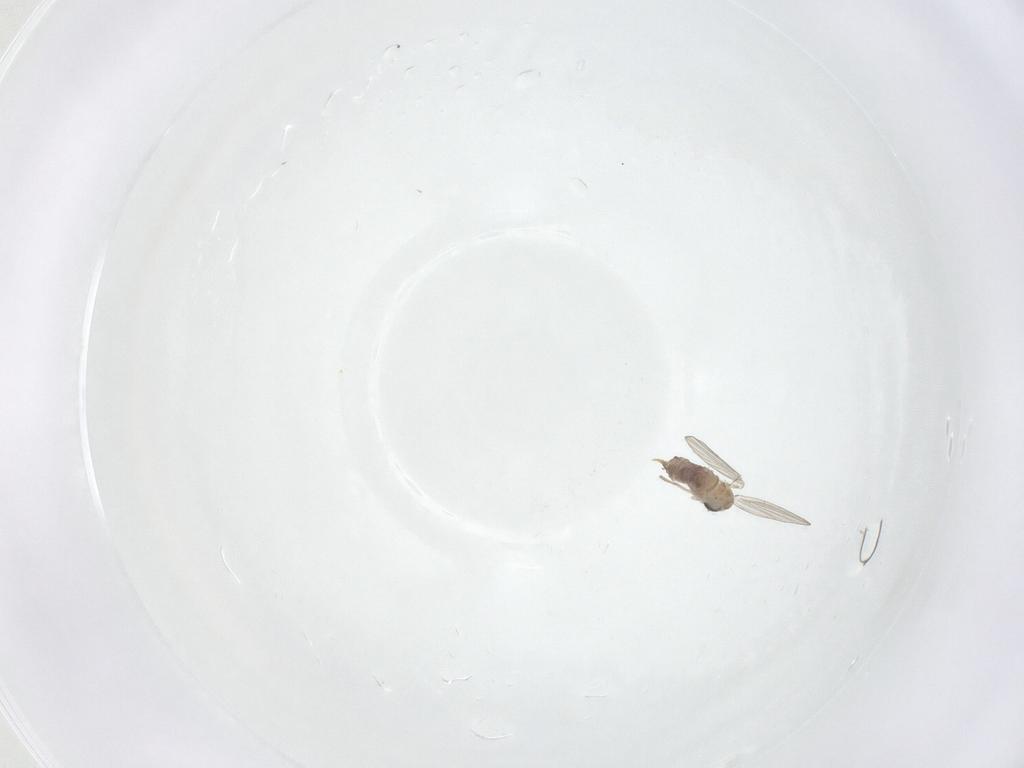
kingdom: Animalia
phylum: Arthropoda
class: Insecta
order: Diptera
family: Psychodidae
